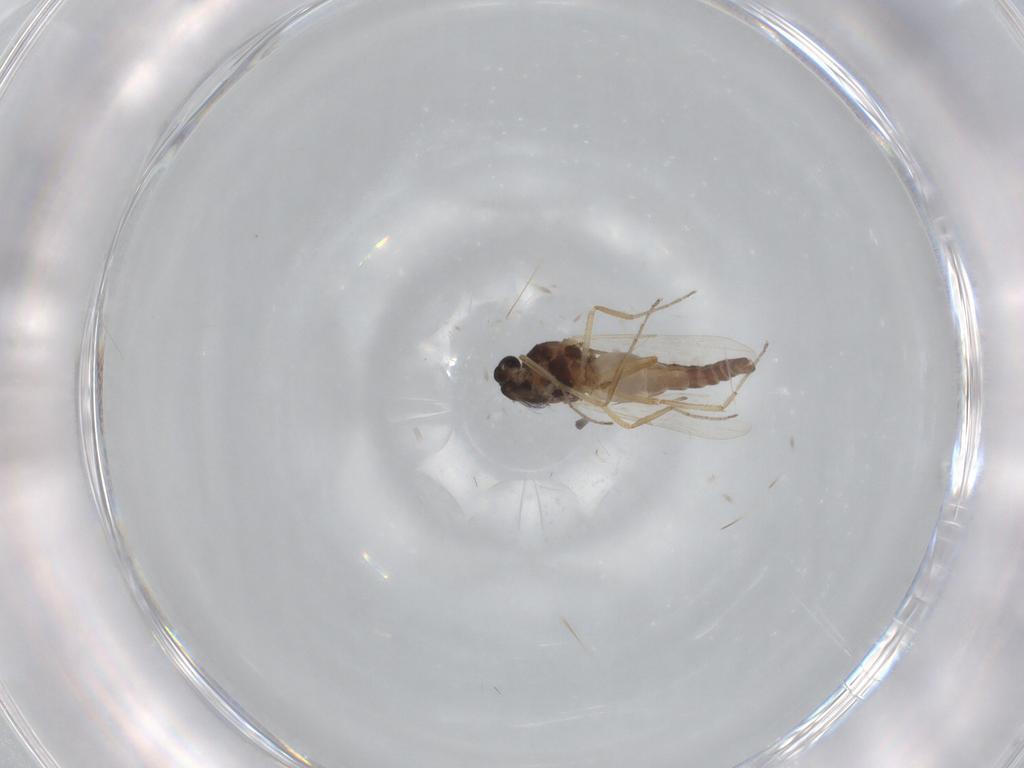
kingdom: Animalia
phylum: Arthropoda
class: Insecta
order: Diptera
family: Ceratopogonidae
